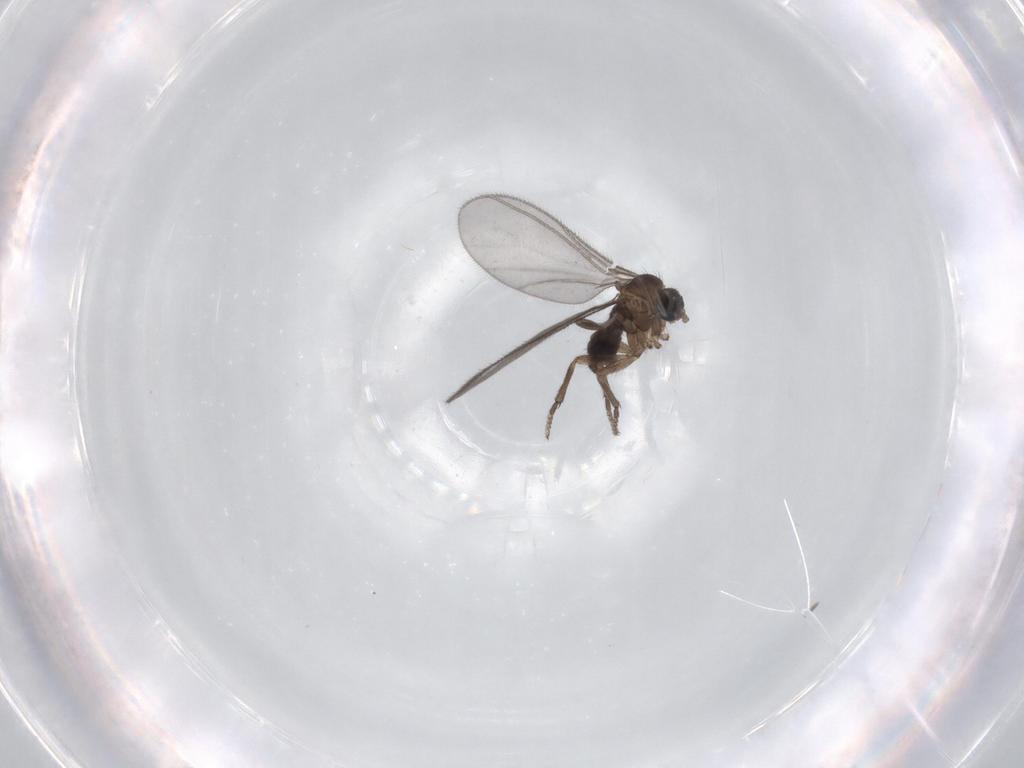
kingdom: Animalia
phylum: Arthropoda
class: Insecta
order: Diptera
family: Sciaridae
